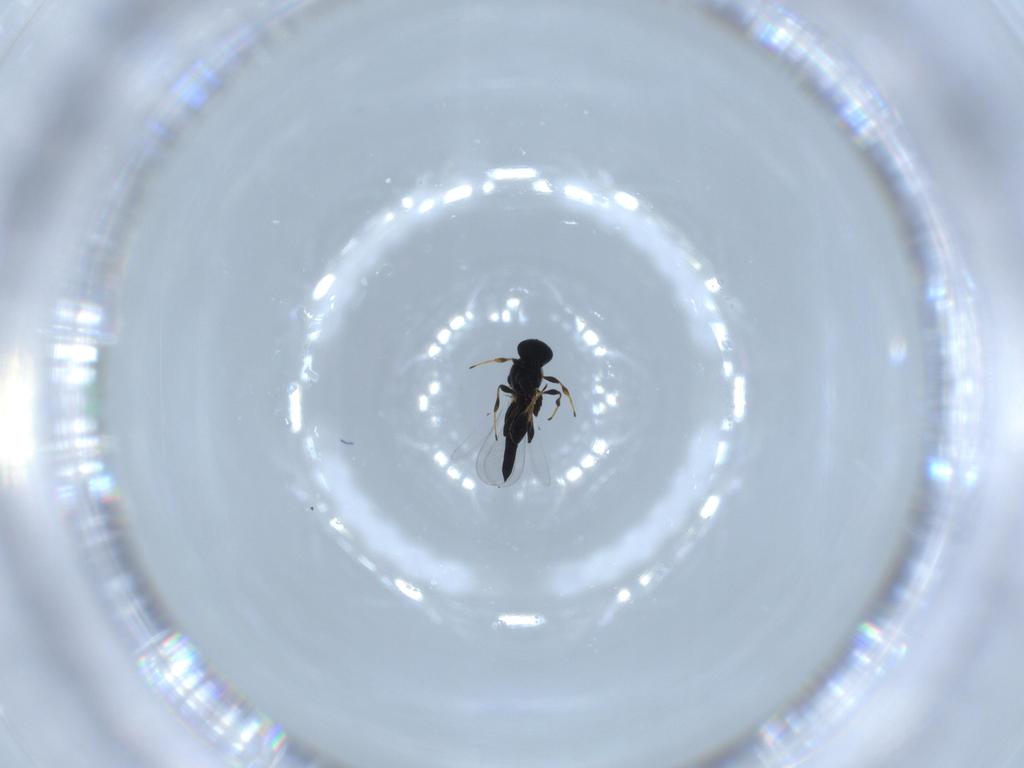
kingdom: Animalia
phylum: Arthropoda
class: Insecta
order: Hymenoptera
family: Platygastridae
